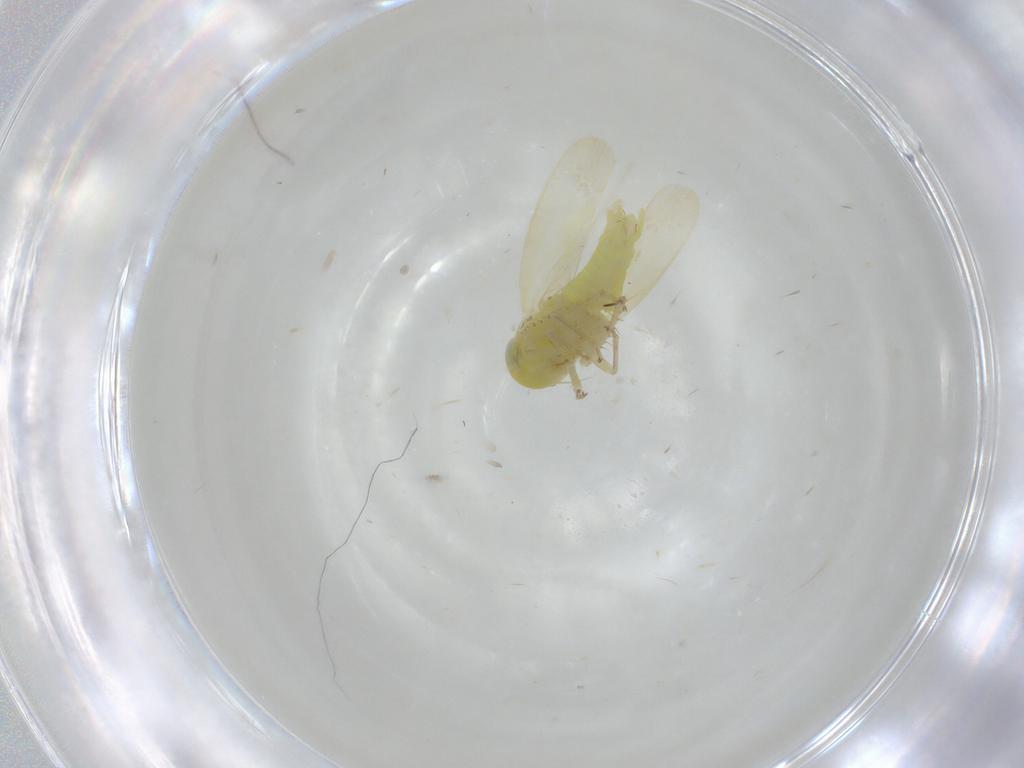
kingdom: Animalia
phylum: Arthropoda
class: Insecta
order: Hemiptera
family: Cicadellidae
